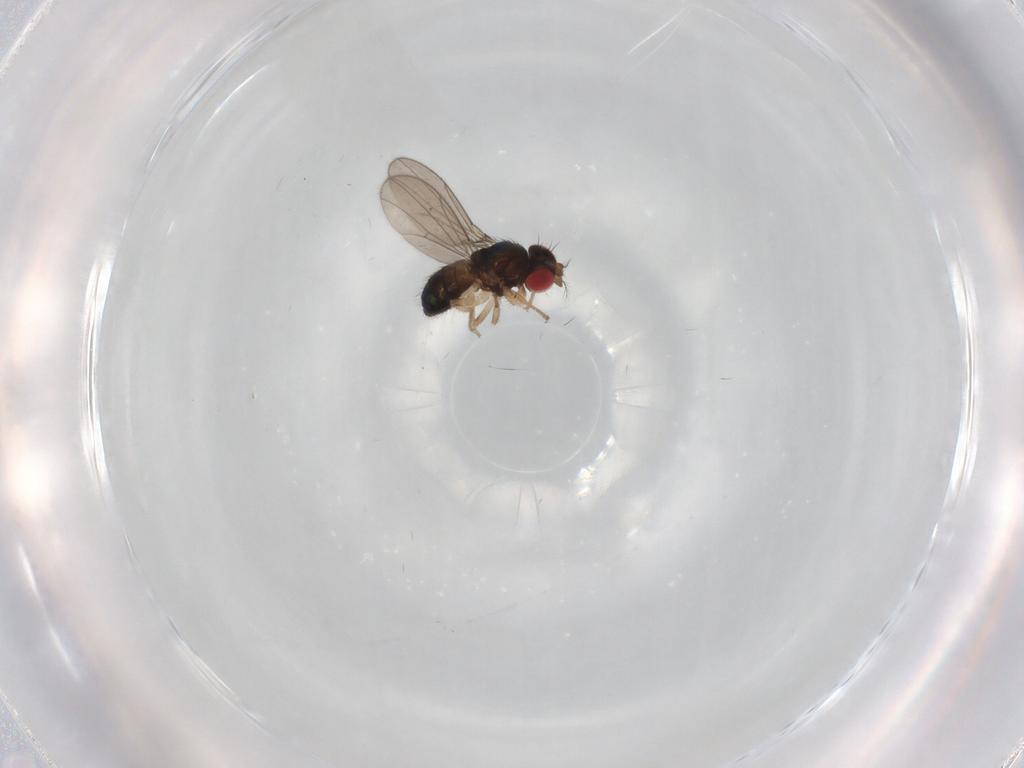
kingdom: Animalia
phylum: Arthropoda
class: Insecta
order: Diptera
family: Drosophilidae
